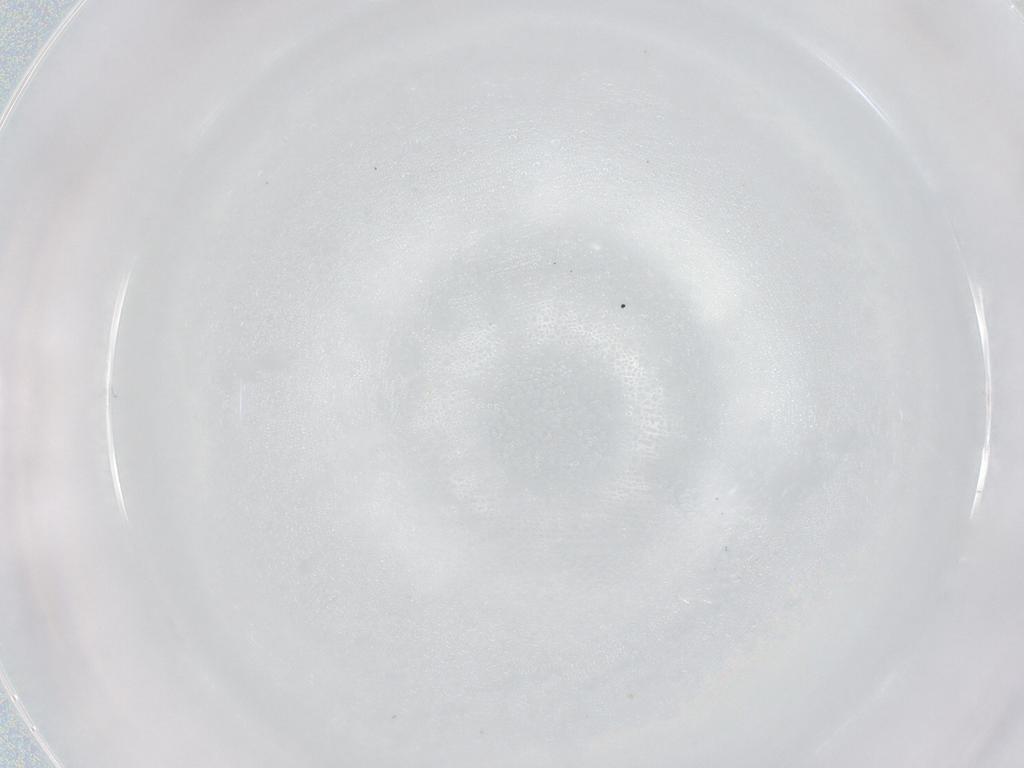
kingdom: Animalia
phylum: Arthropoda
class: Insecta
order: Diptera
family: Cecidomyiidae
